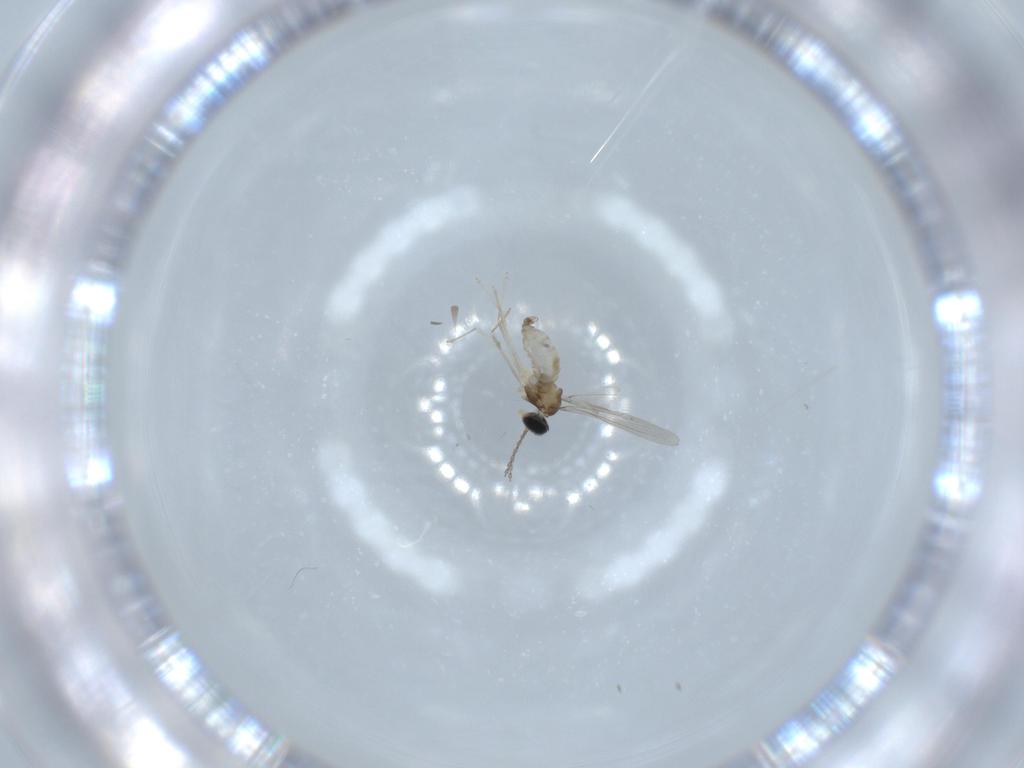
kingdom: Animalia
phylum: Arthropoda
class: Insecta
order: Diptera
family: Cecidomyiidae
